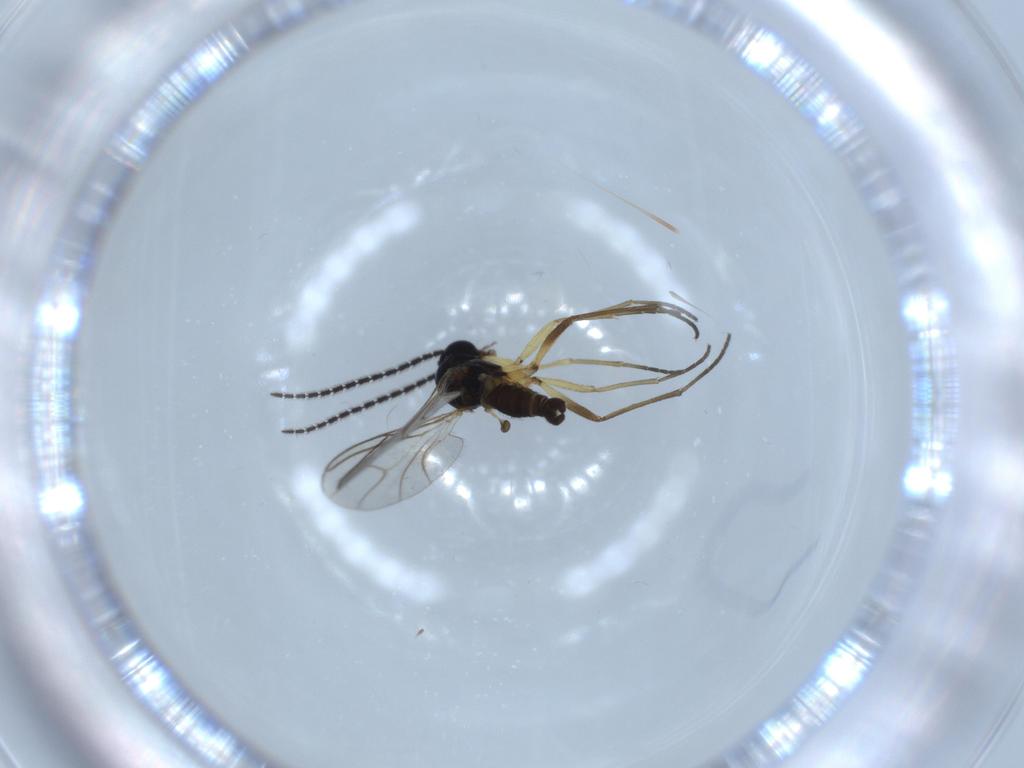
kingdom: Animalia
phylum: Arthropoda
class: Insecta
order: Diptera
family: Sciaridae
